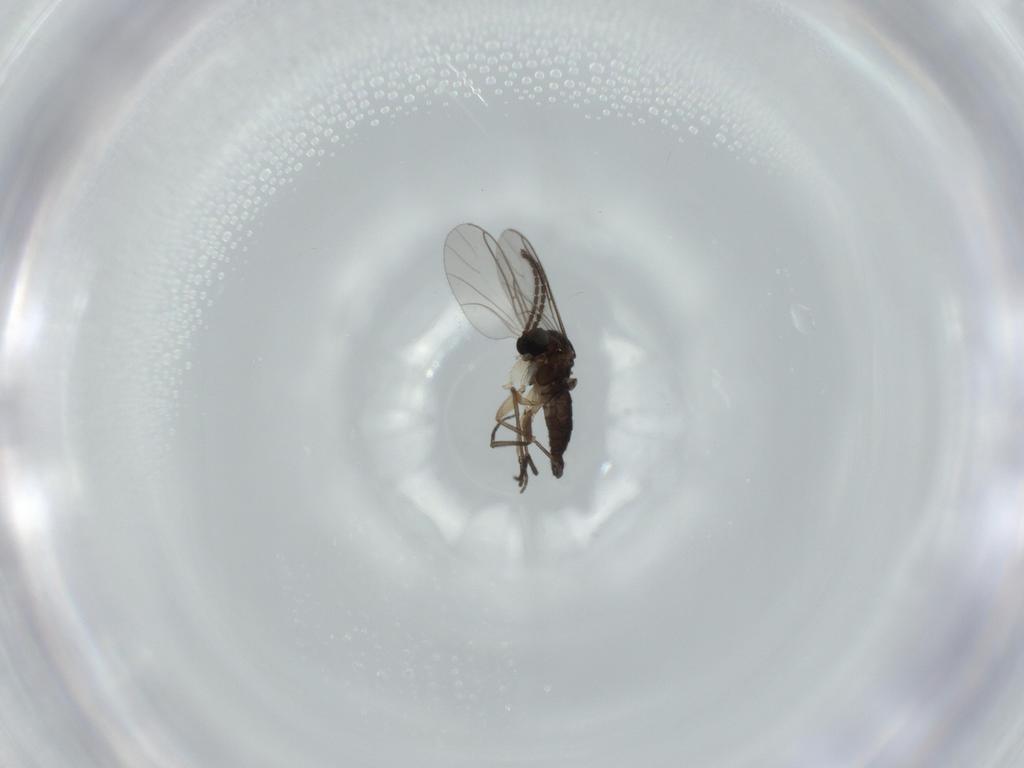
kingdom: Animalia
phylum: Arthropoda
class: Insecta
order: Diptera
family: Sciaridae
